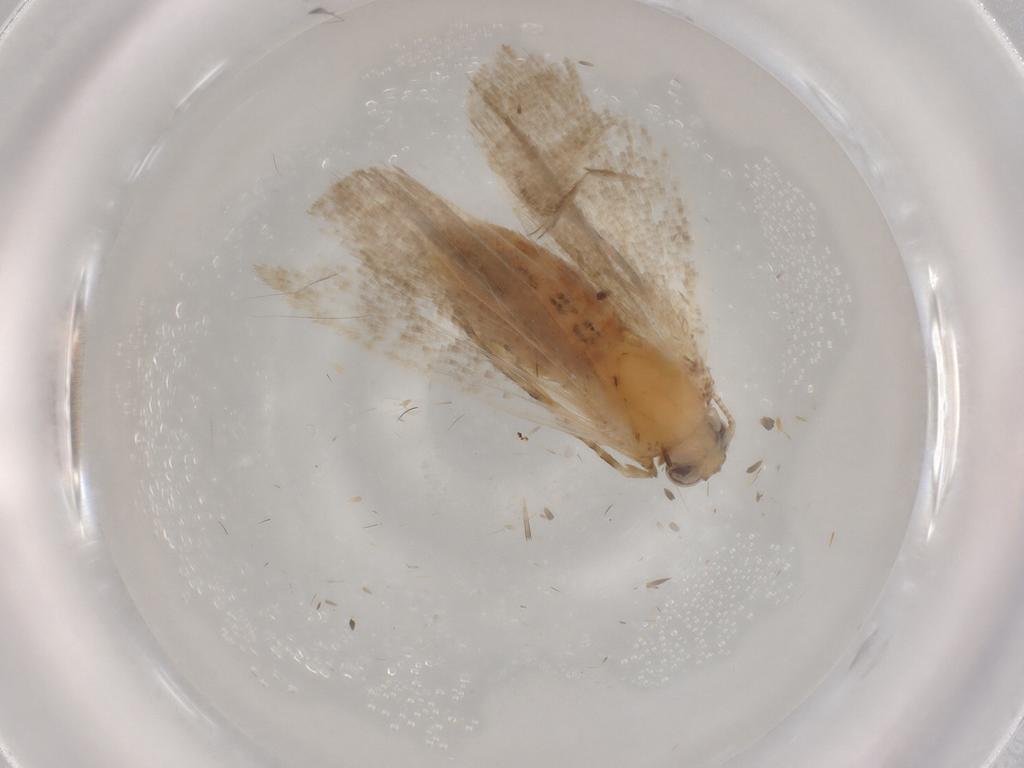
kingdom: Animalia
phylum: Arthropoda
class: Insecta
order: Lepidoptera
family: Erebidae
